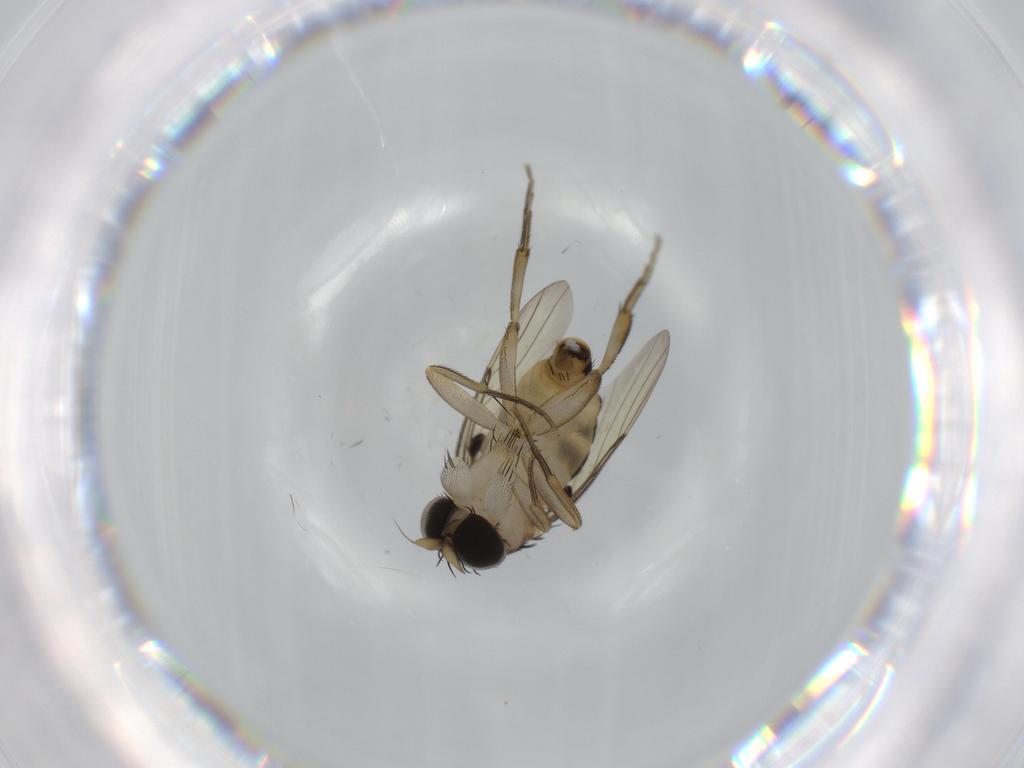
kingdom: Animalia
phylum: Arthropoda
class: Insecta
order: Diptera
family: Phoridae
